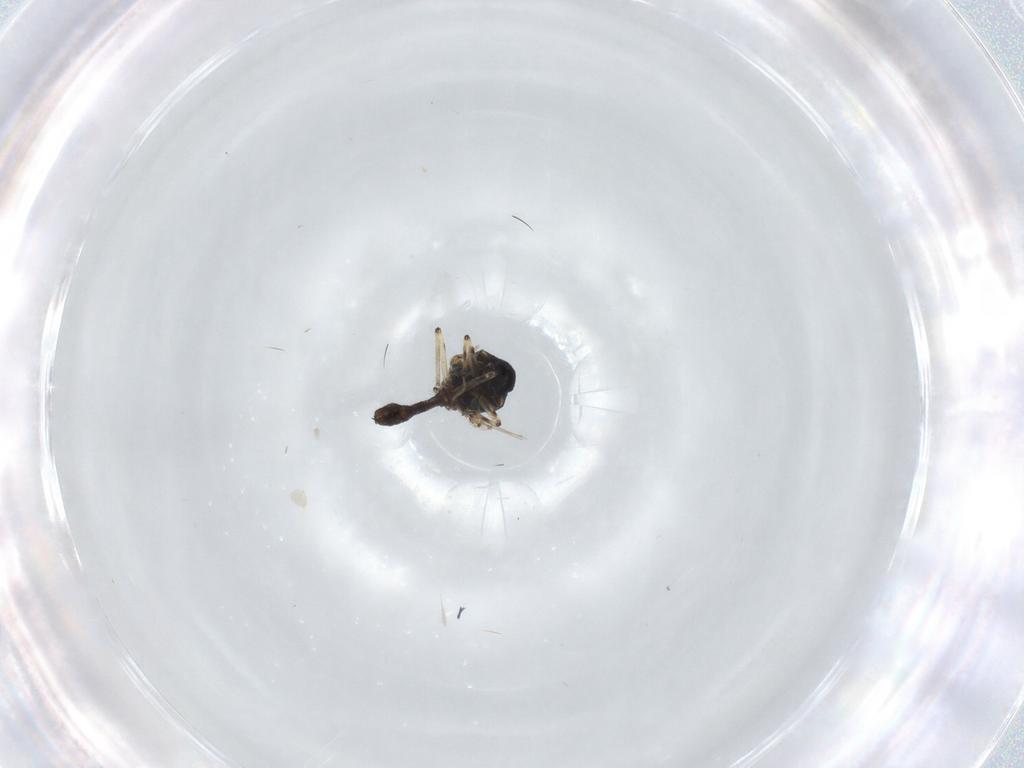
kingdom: Animalia
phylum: Arthropoda
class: Insecta
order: Diptera
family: Ceratopogonidae
